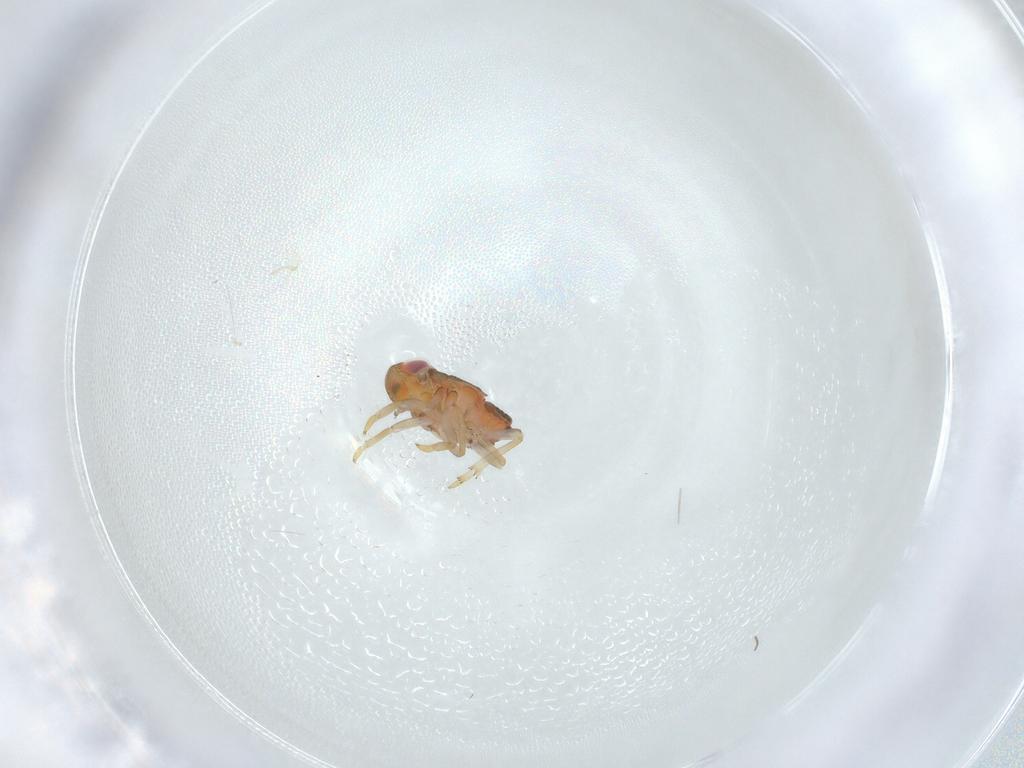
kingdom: Animalia
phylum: Arthropoda
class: Insecta
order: Hemiptera
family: Issidae
